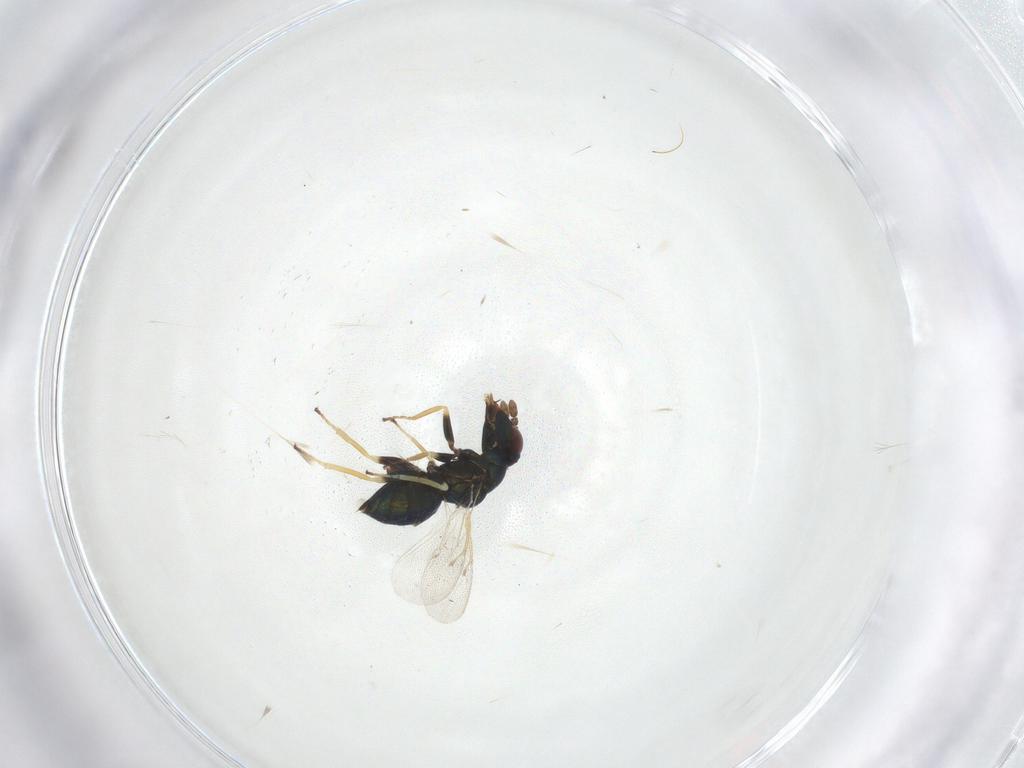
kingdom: Animalia
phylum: Arthropoda
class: Insecta
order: Hymenoptera
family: Eulophidae
